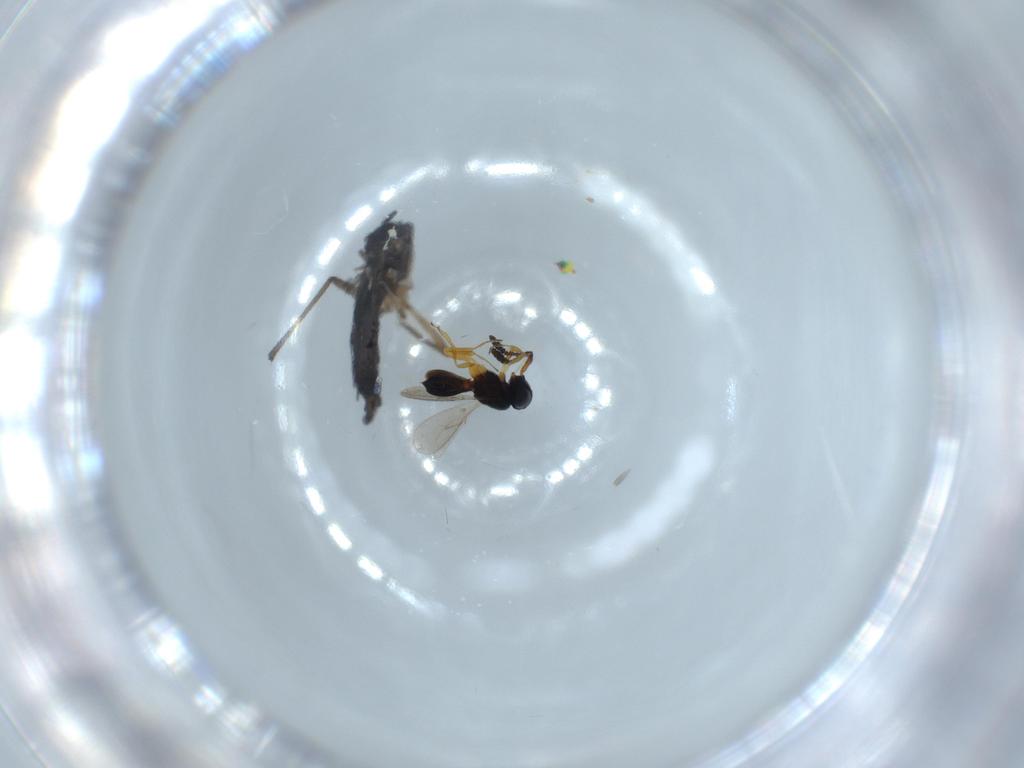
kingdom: Animalia
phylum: Arthropoda
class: Insecta
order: Hymenoptera
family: Scelionidae
